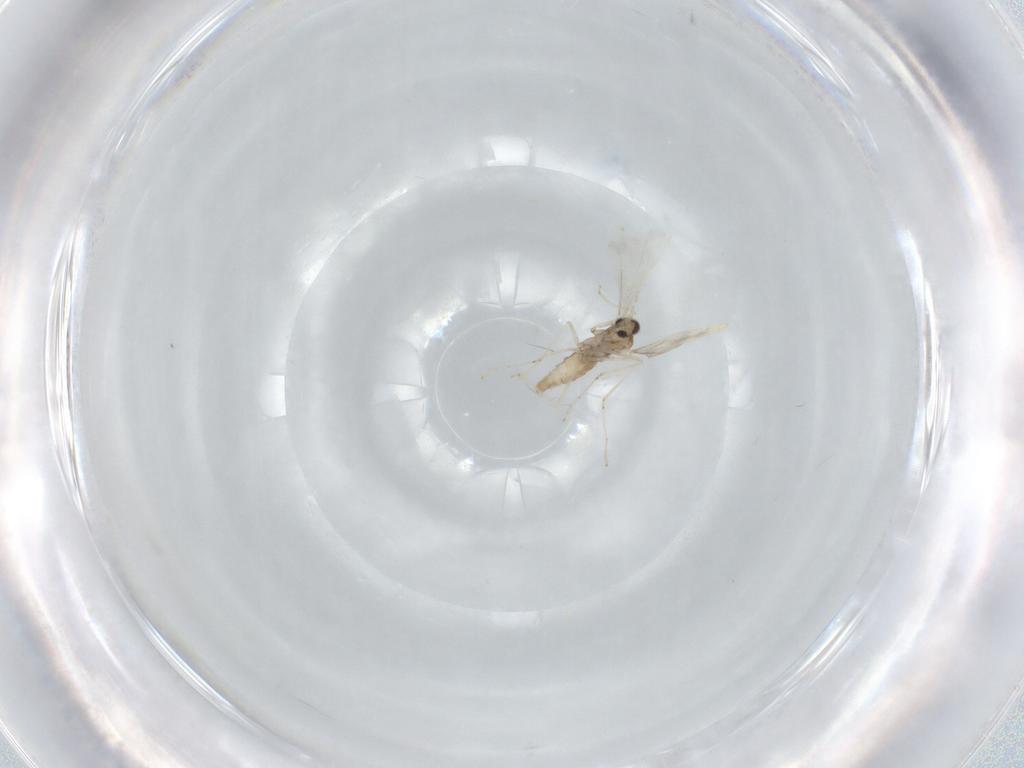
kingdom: Animalia
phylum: Arthropoda
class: Insecta
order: Diptera
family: Cecidomyiidae
